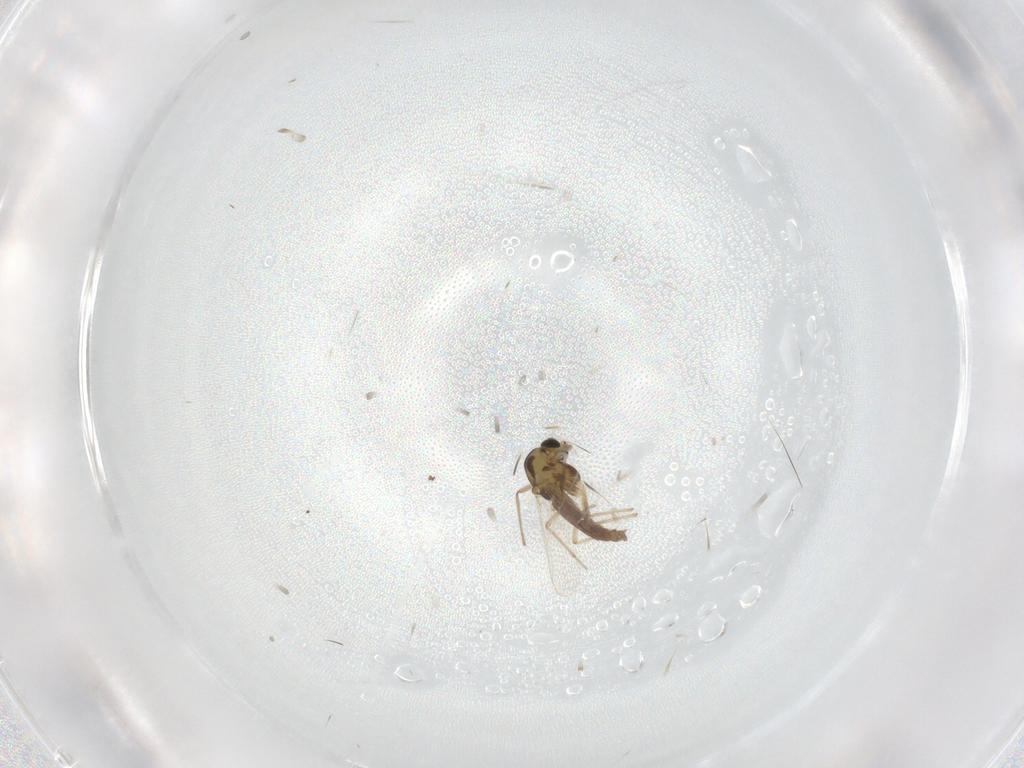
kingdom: Animalia
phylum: Arthropoda
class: Insecta
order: Diptera
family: Chironomidae
